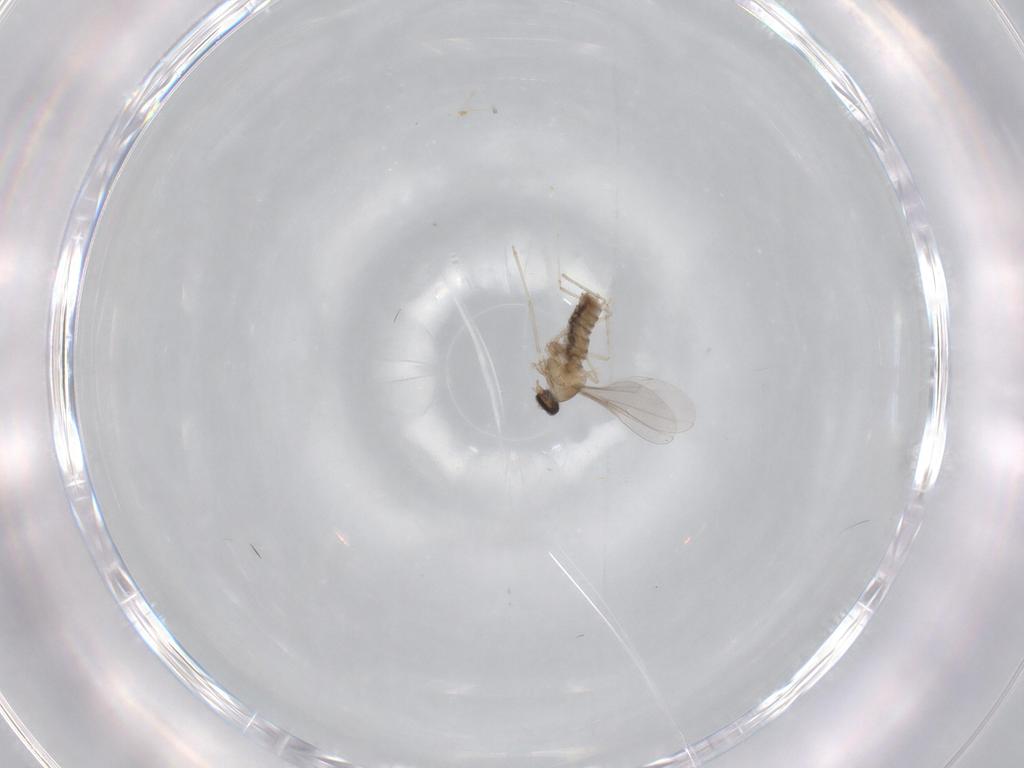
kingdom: Animalia
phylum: Arthropoda
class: Insecta
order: Diptera
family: Cecidomyiidae
